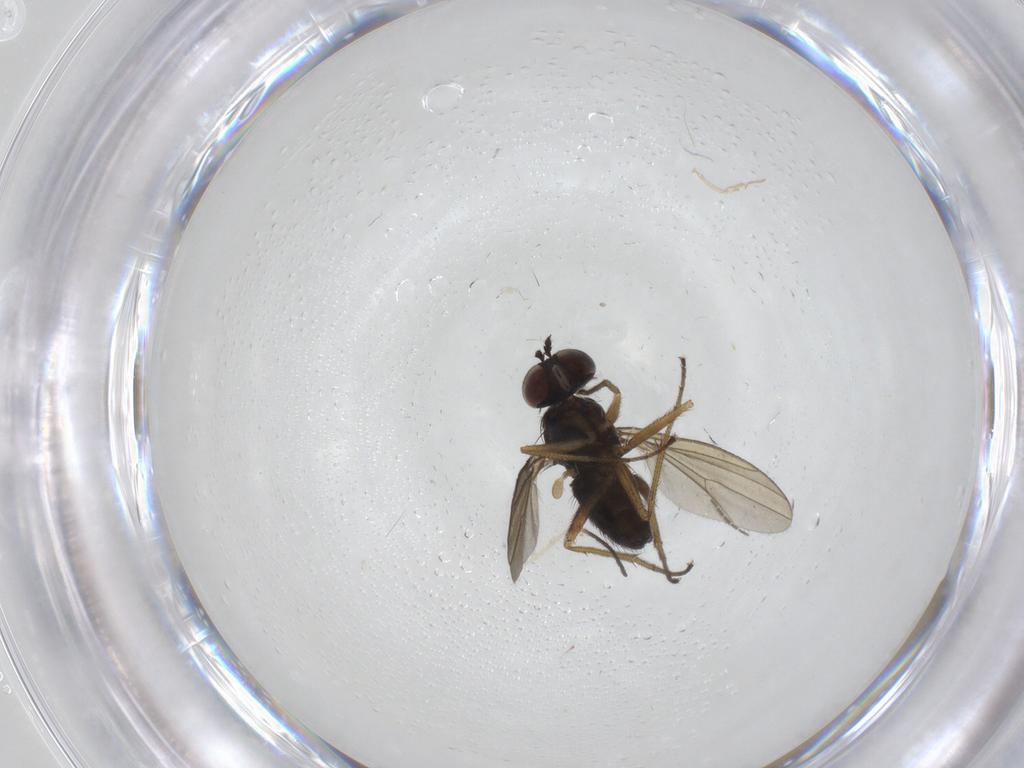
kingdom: Animalia
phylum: Arthropoda
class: Insecta
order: Diptera
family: Dolichopodidae
